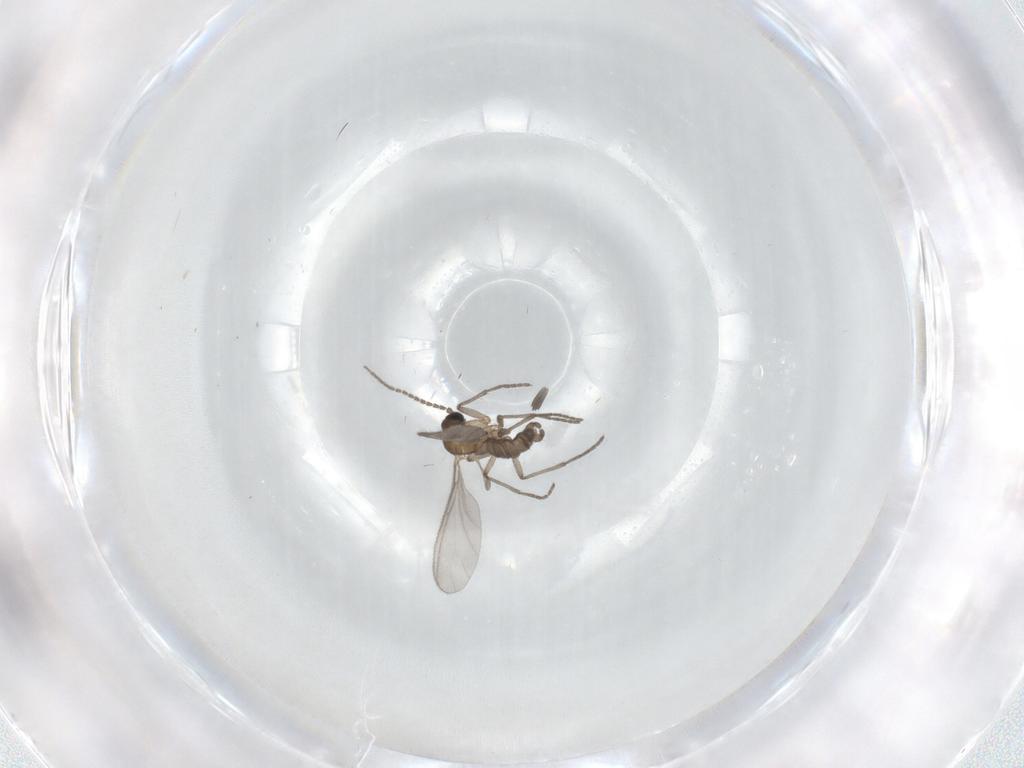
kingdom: Animalia
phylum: Arthropoda
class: Insecta
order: Diptera
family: Sciaridae
